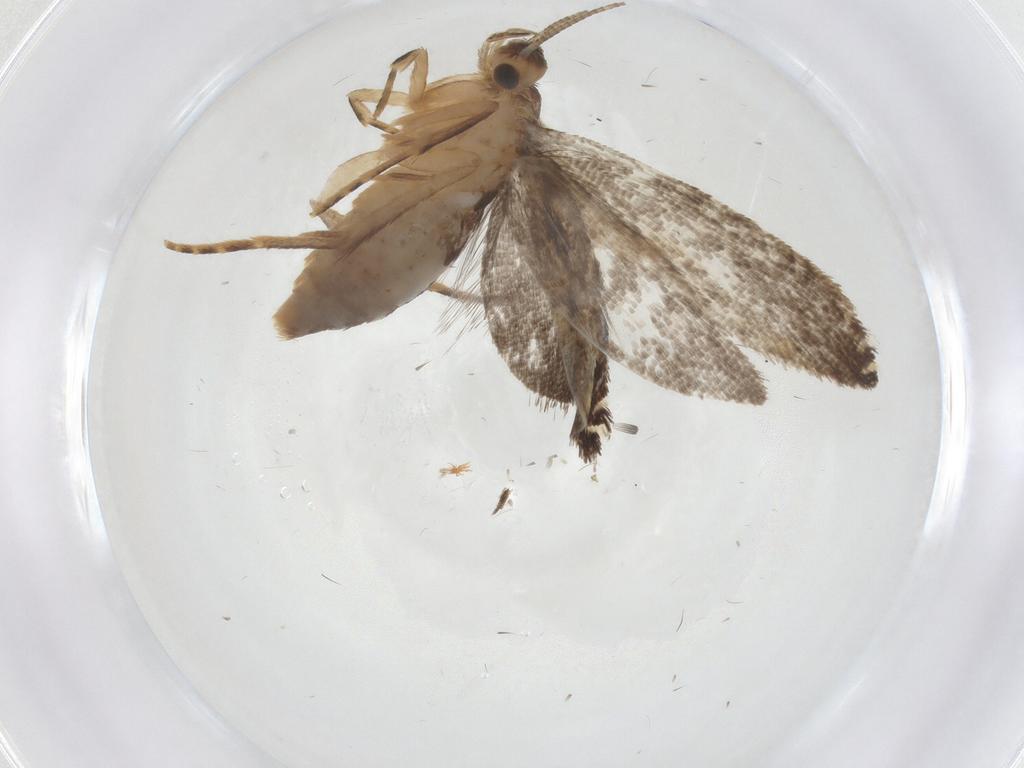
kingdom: Animalia
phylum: Arthropoda
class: Insecta
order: Lepidoptera
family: Tineidae
